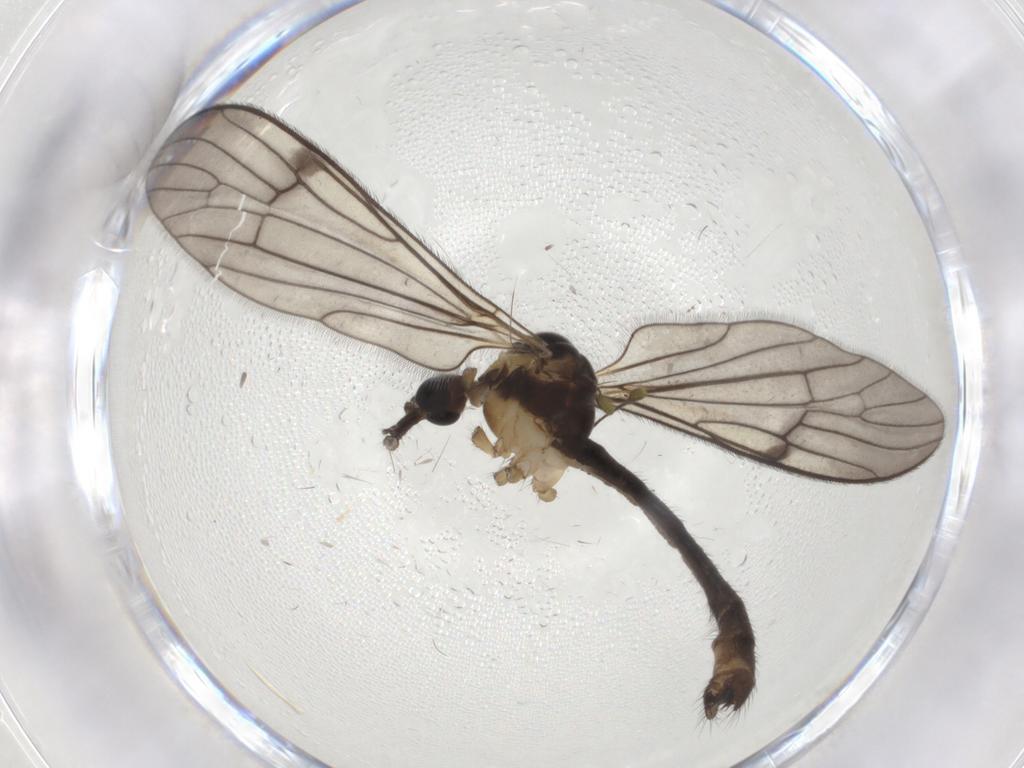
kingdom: Animalia
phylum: Arthropoda
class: Insecta
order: Diptera
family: Limoniidae
